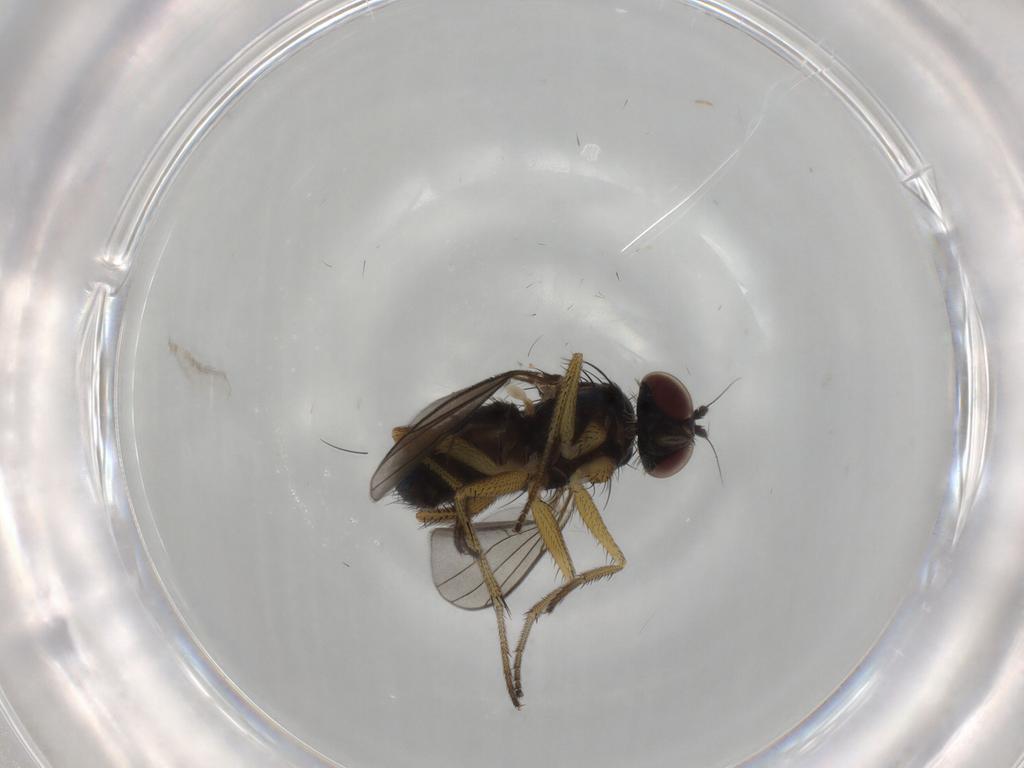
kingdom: Animalia
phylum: Arthropoda
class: Insecta
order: Diptera
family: Dolichopodidae
